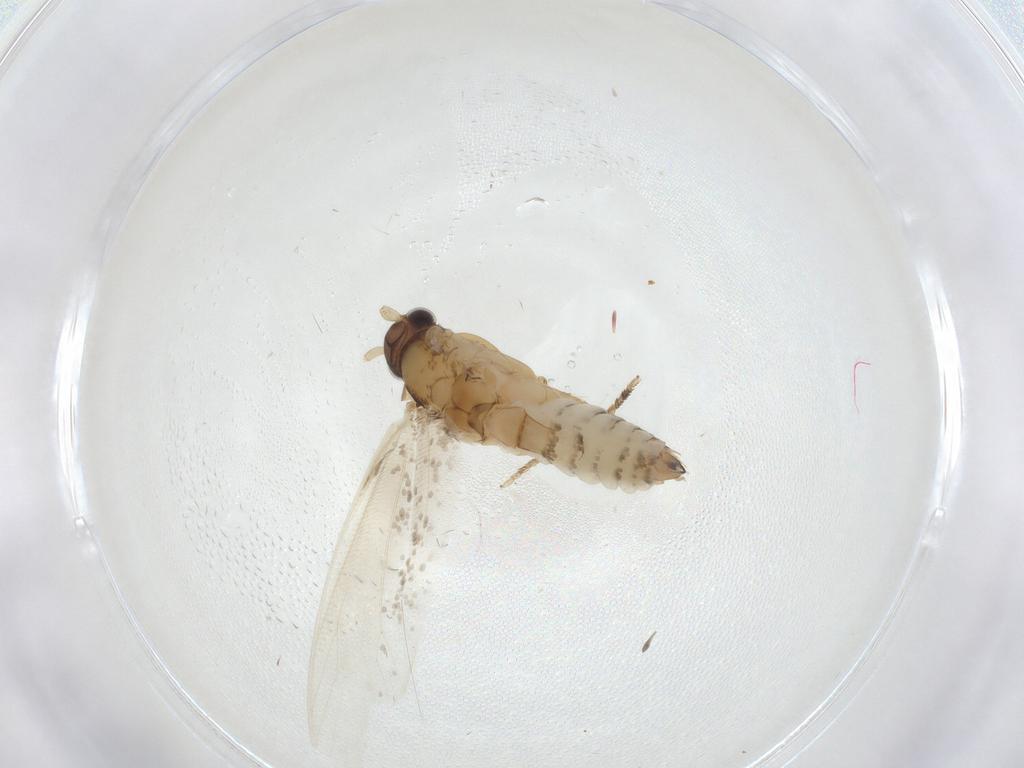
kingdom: Animalia
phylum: Arthropoda
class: Insecta
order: Lepidoptera
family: Tineidae
